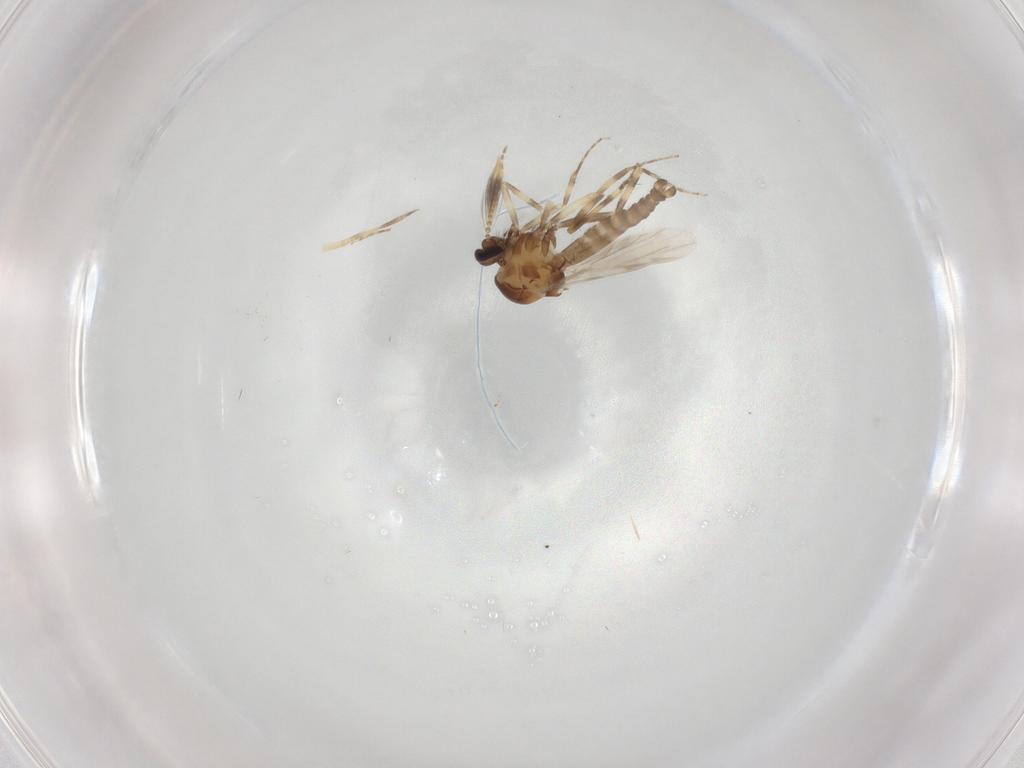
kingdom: Animalia
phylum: Arthropoda
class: Insecta
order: Diptera
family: Ceratopogonidae
